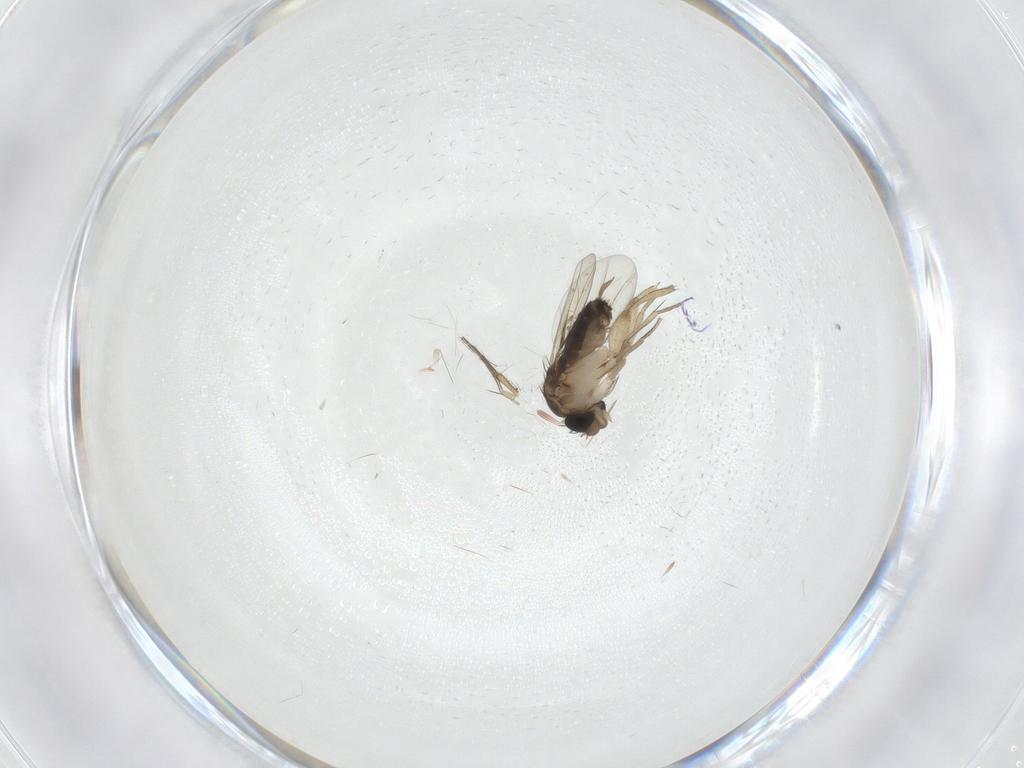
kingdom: Animalia
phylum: Arthropoda
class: Insecta
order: Diptera
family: Phoridae
